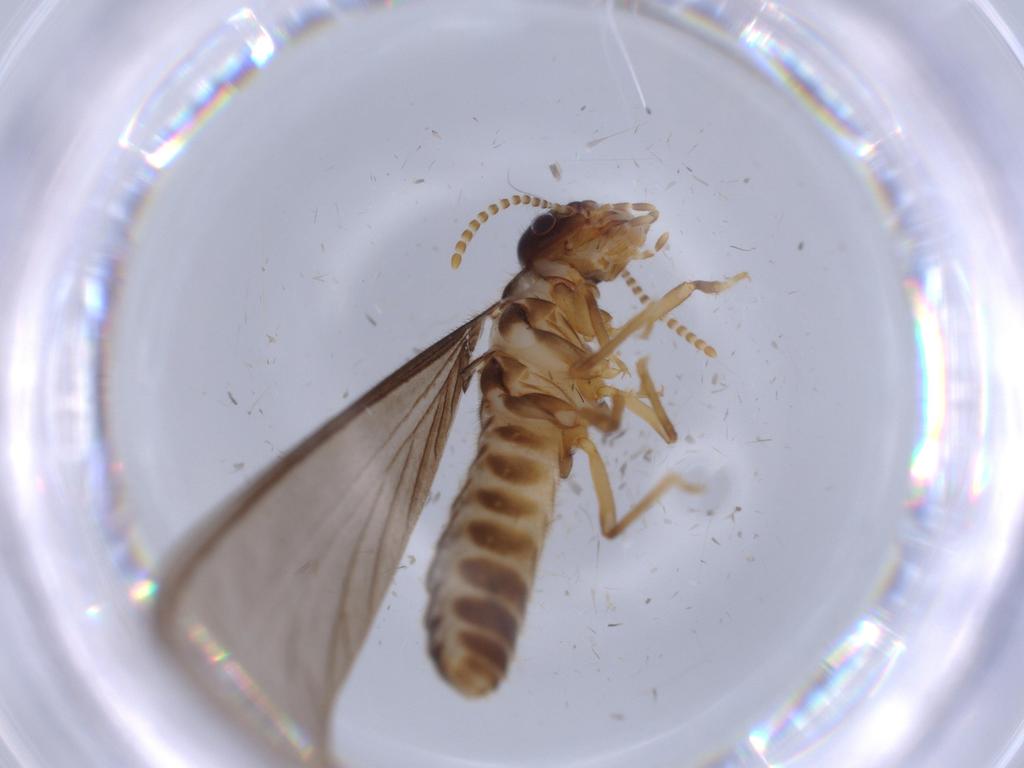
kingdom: Animalia
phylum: Arthropoda
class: Insecta
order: Blattodea
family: Termitidae
